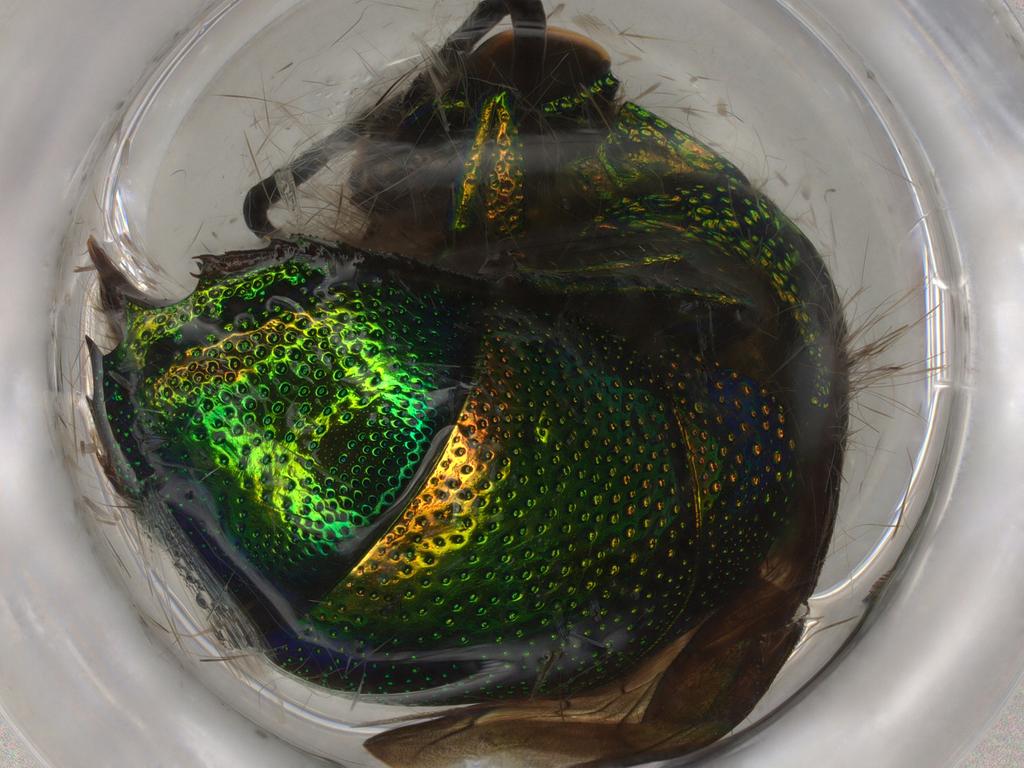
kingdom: Animalia
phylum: Arthropoda
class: Insecta
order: Hymenoptera
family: Chrysididae
